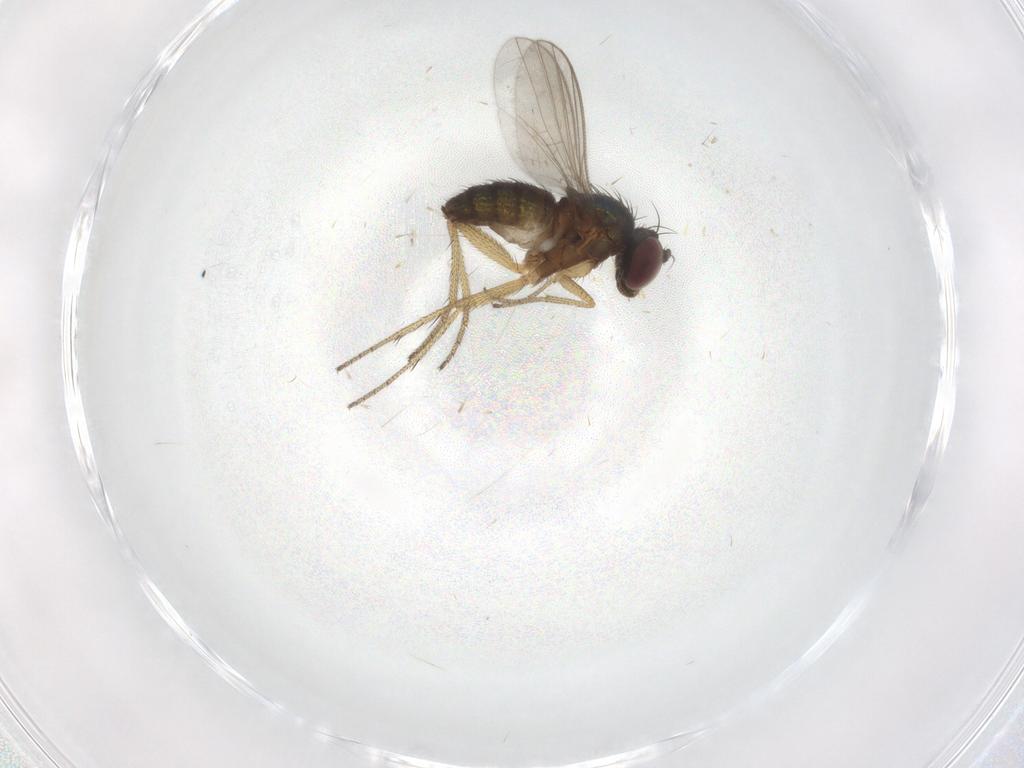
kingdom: Animalia
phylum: Arthropoda
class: Insecta
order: Diptera
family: Dolichopodidae
